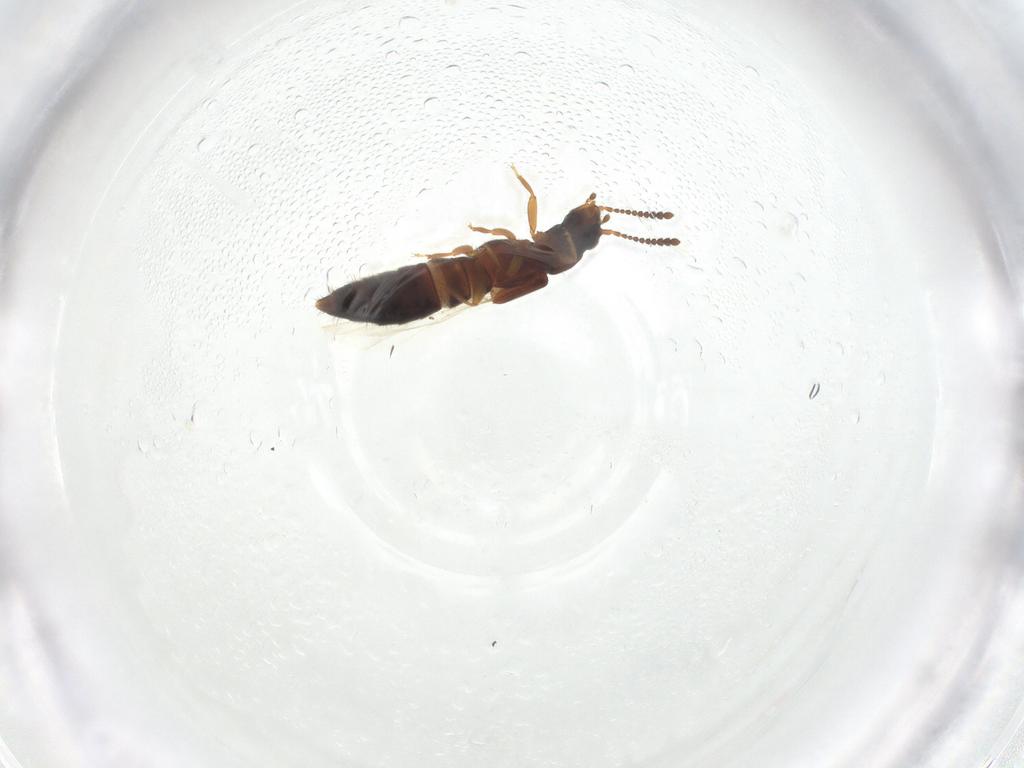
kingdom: Animalia
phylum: Arthropoda
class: Insecta
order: Coleoptera
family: Staphylinidae
